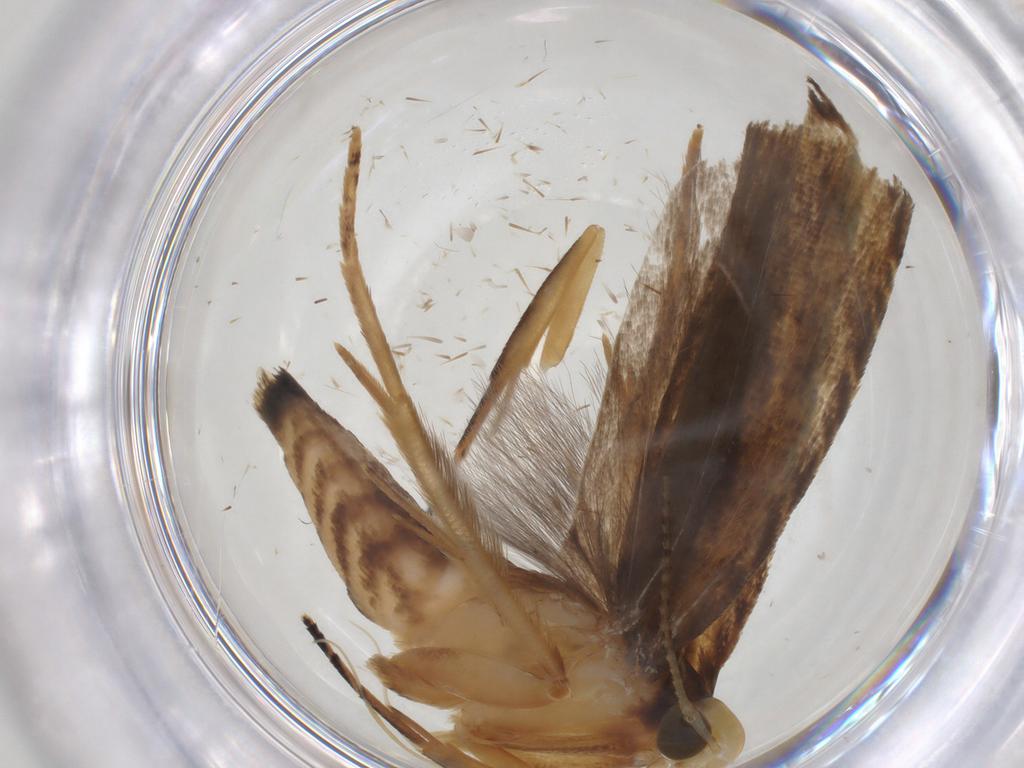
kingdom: Animalia
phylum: Arthropoda
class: Insecta
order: Lepidoptera
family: Gelechiidae
